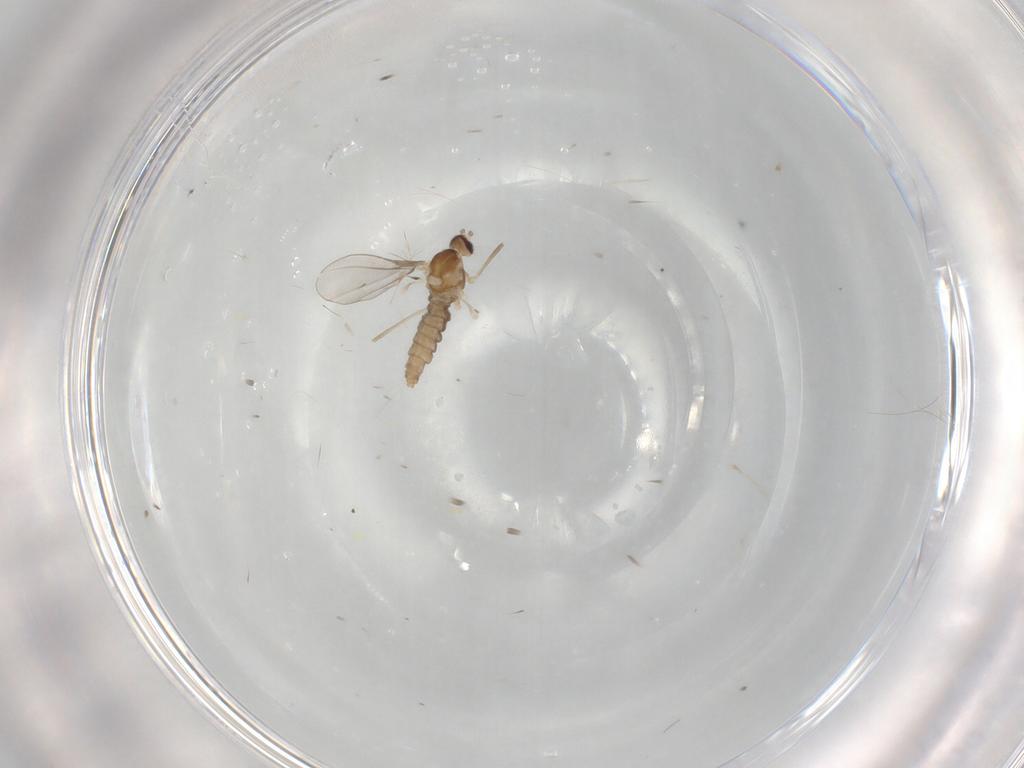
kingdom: Animalia
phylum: Arthropoda
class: Insecta
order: Diptera
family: Cecidomyiidae
